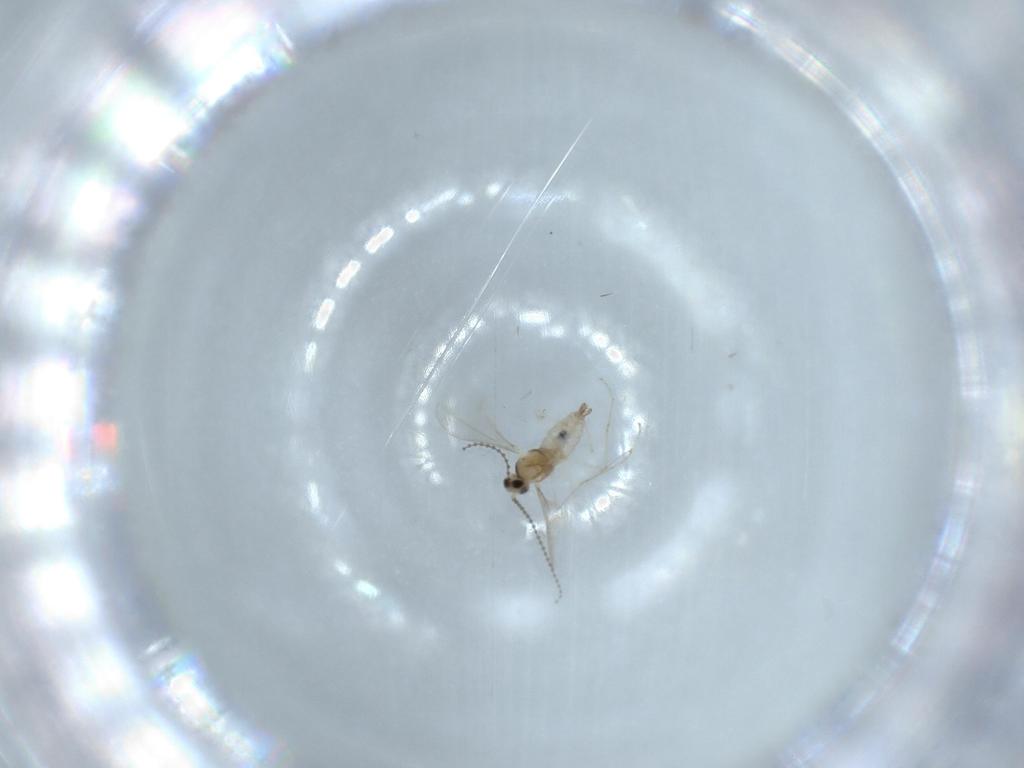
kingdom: Animalia
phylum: Arthropoda
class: Insecta
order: Diptera
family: Cecidomyiidae
